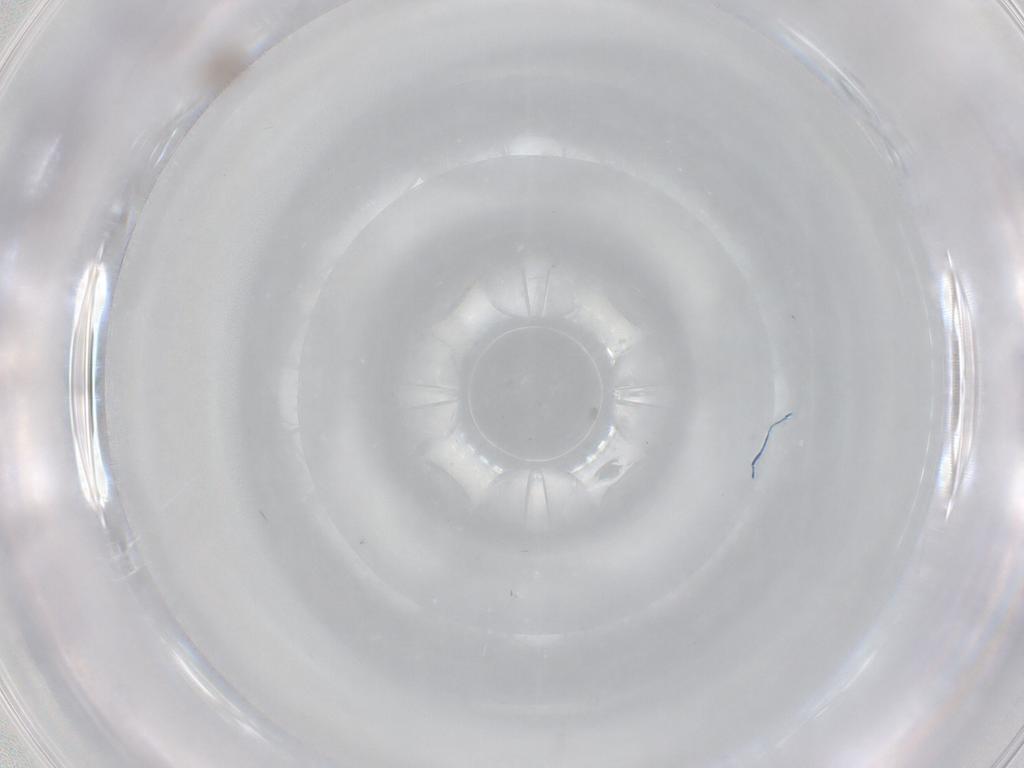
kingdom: Animalia
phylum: Arthropoda
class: Insecta
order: Diptera
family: Psychodidae
